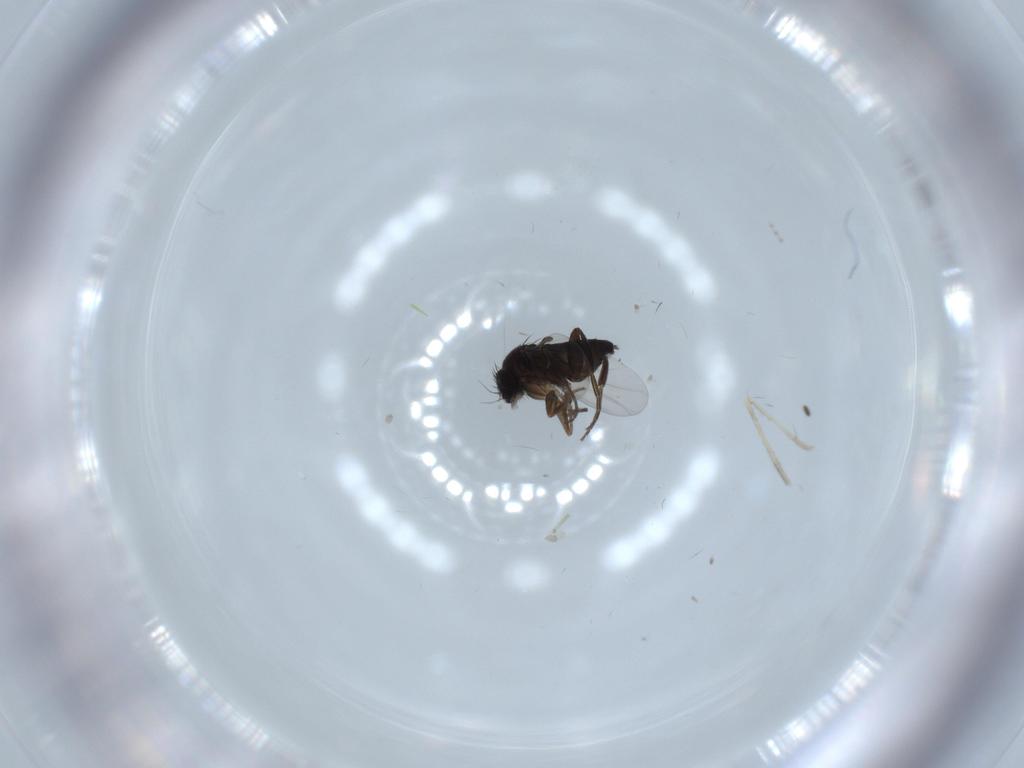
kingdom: Animalia
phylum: Arthropoda
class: Insecta
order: Diptera
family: Phoridae
